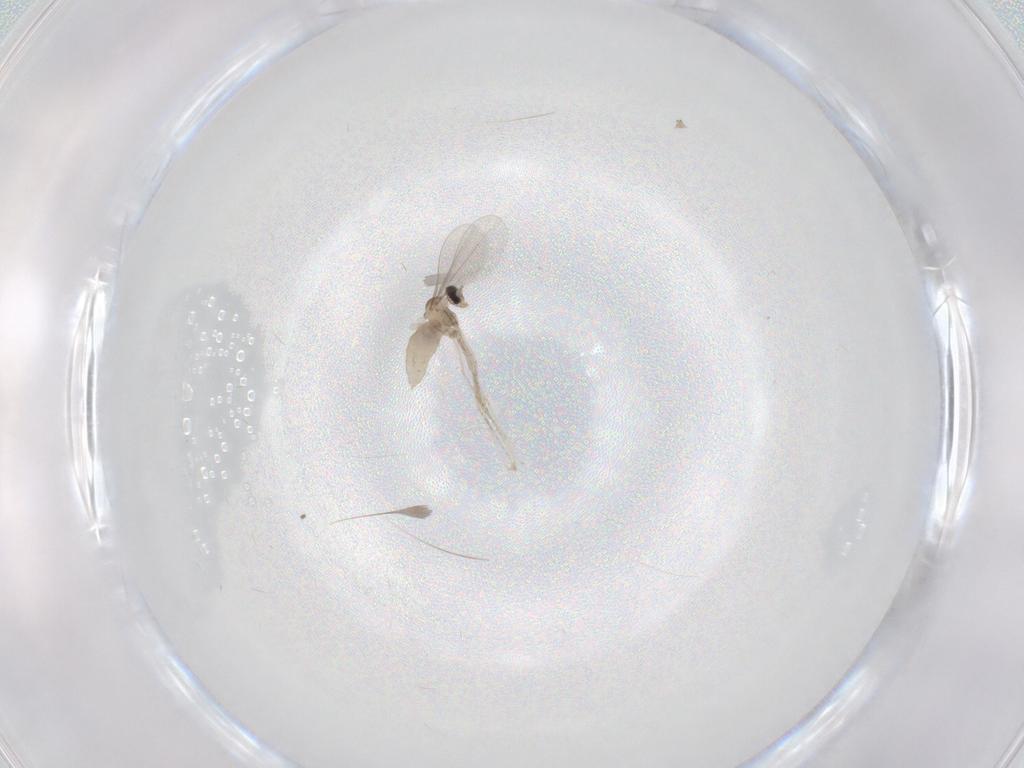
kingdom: Animalia
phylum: Arthropoda
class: Insecta
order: Diptera
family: Cecidomyiidae
